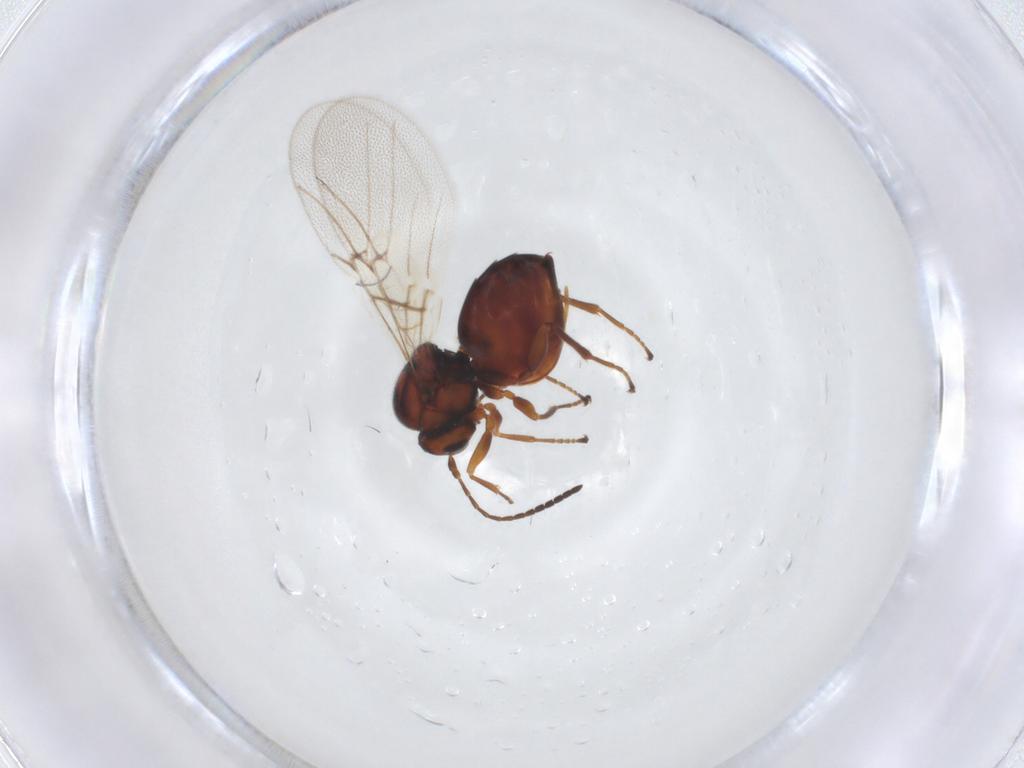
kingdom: Animalia
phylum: Arthropoda
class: Insecta
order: Hymenoptera
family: Cynipidae
